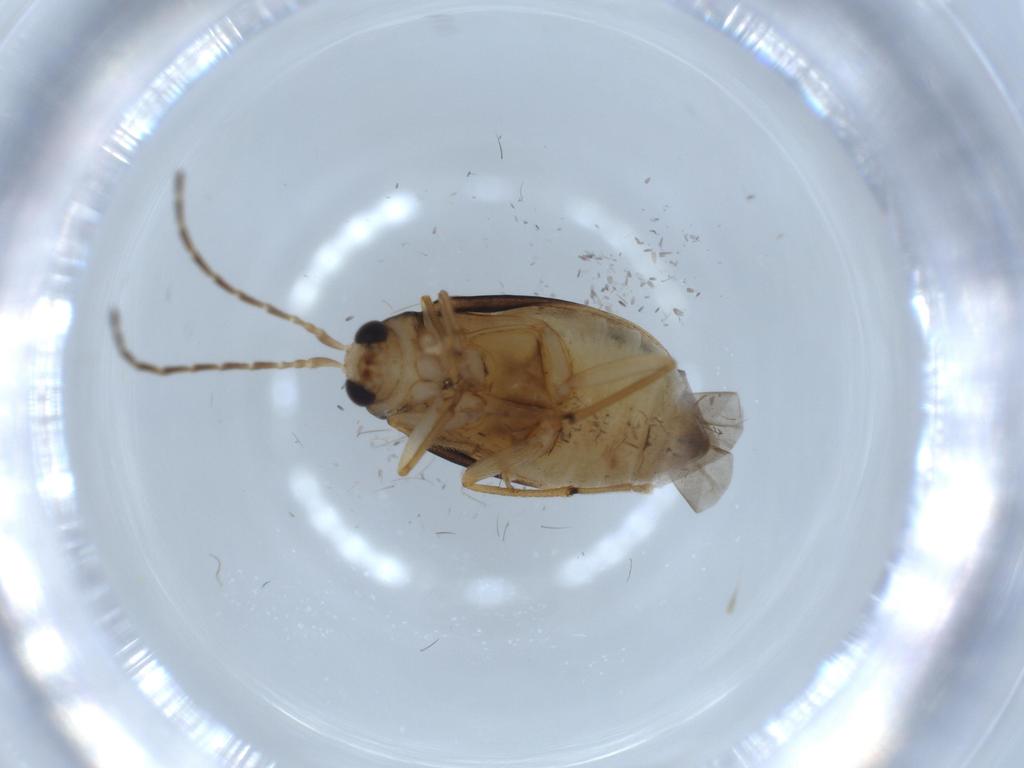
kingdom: Animalia
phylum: Arthropoda
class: Insecta
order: Coleoptera
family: Chrysomelidae
